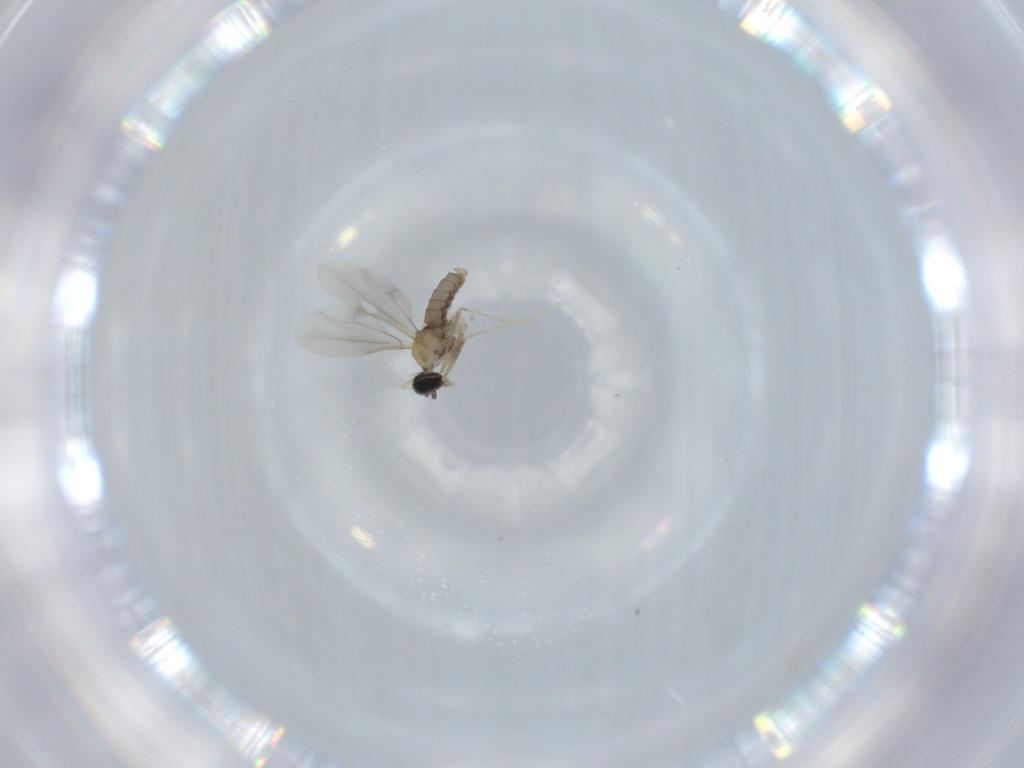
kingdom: Animalia
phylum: Arthropoda
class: Insecta
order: Diptera
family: Cecidomyiidae
